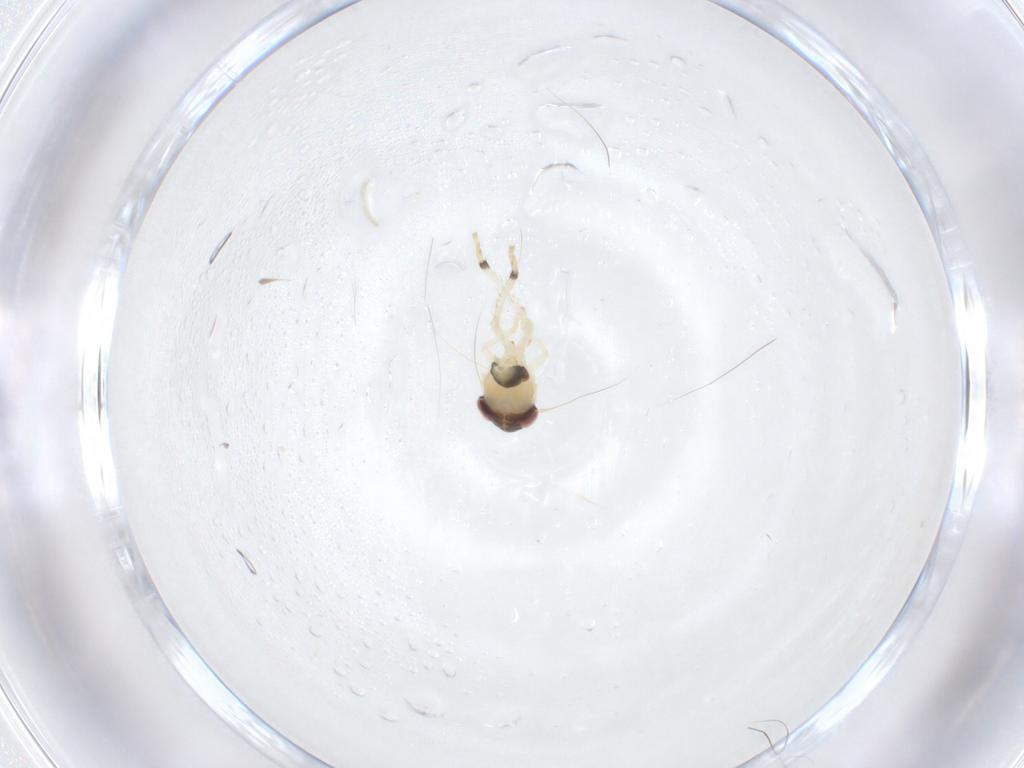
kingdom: Animalia
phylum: Arthropoda
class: Insecta
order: Hemiptera
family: Cicadellidae
